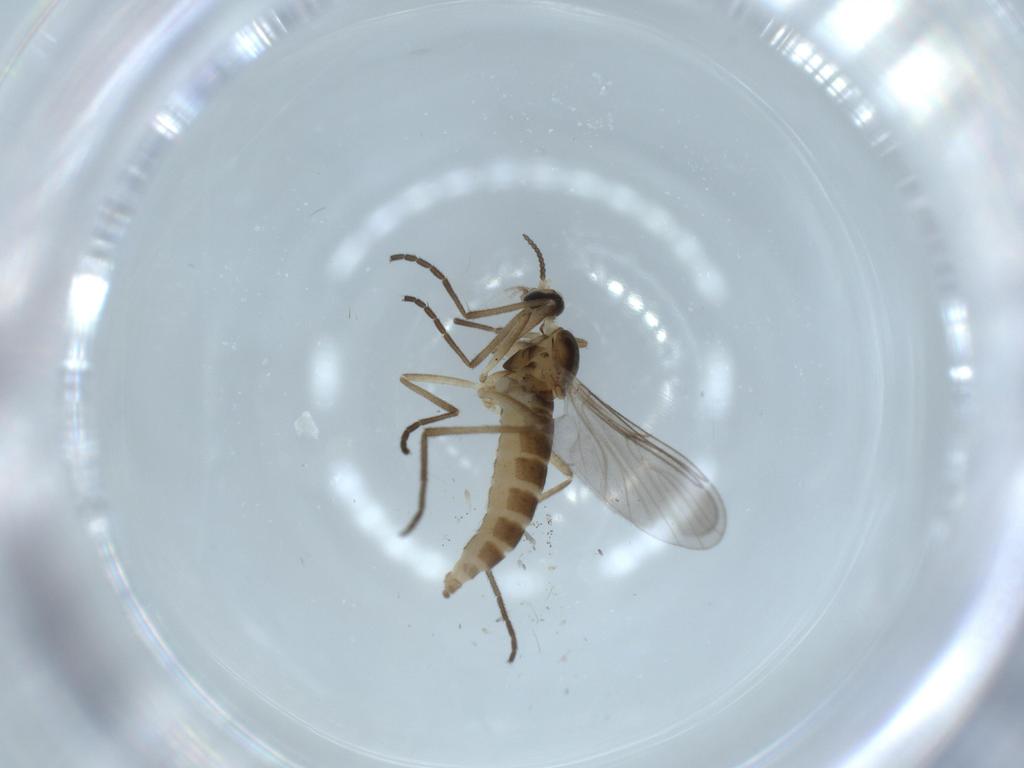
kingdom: Animalia
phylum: Arthropoda
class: Insecta
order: Diptera
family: Cecidomyiidae
